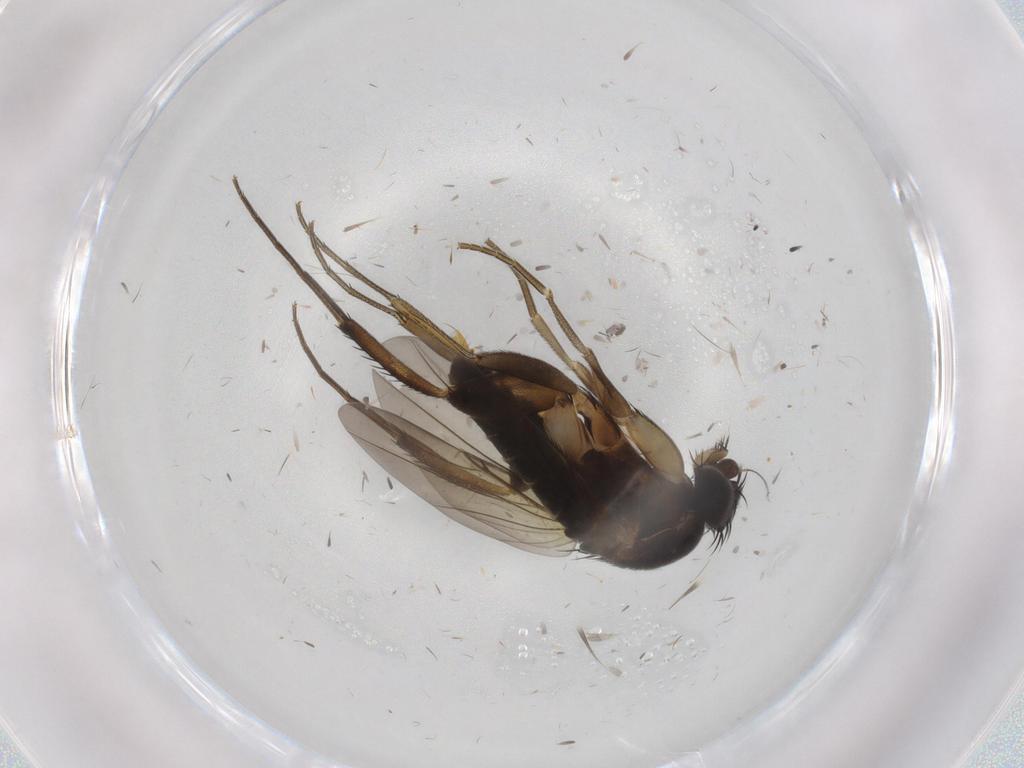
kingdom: Animalia
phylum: Arthropoda
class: Insecta
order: Diptera
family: Phoridae
